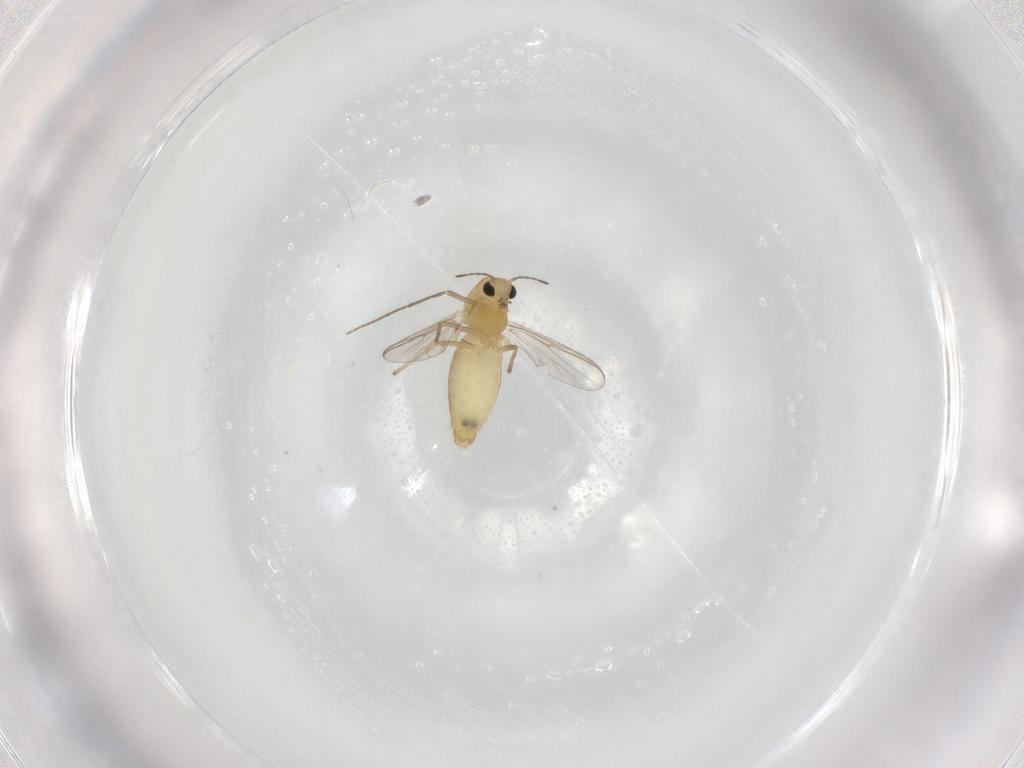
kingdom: Animalia
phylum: Arthropoda
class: Insecta
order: Diptera
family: Chironomidae
